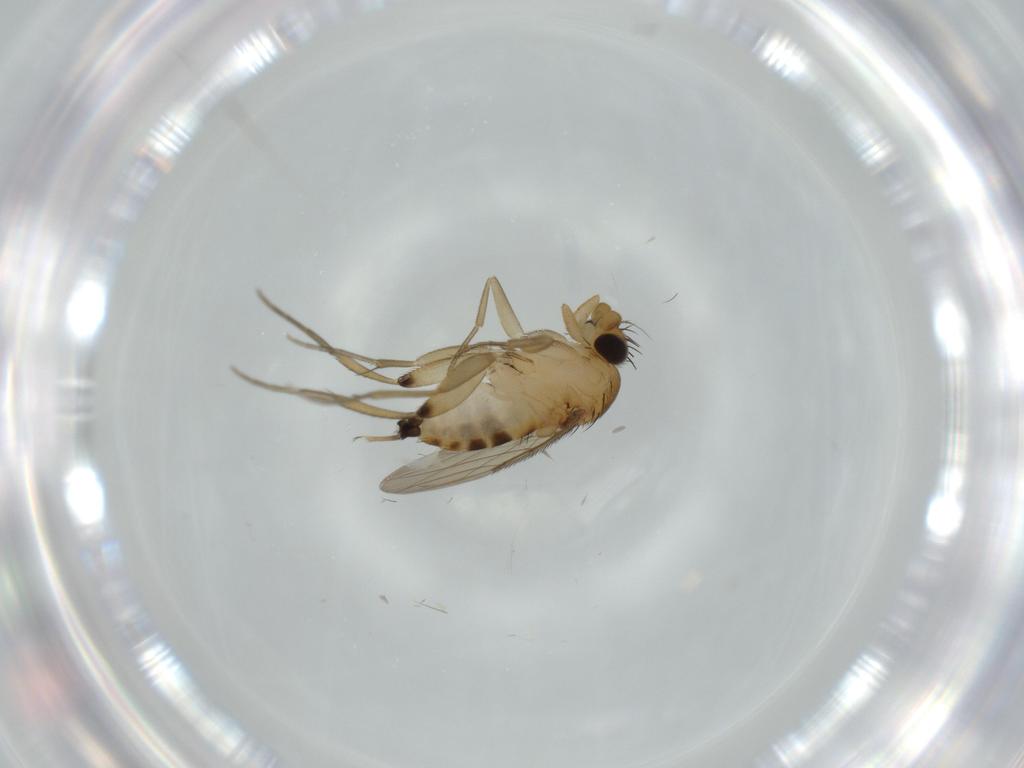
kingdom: Animalia
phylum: Arthropoda
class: Insecta
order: Diptera
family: Phoridae
